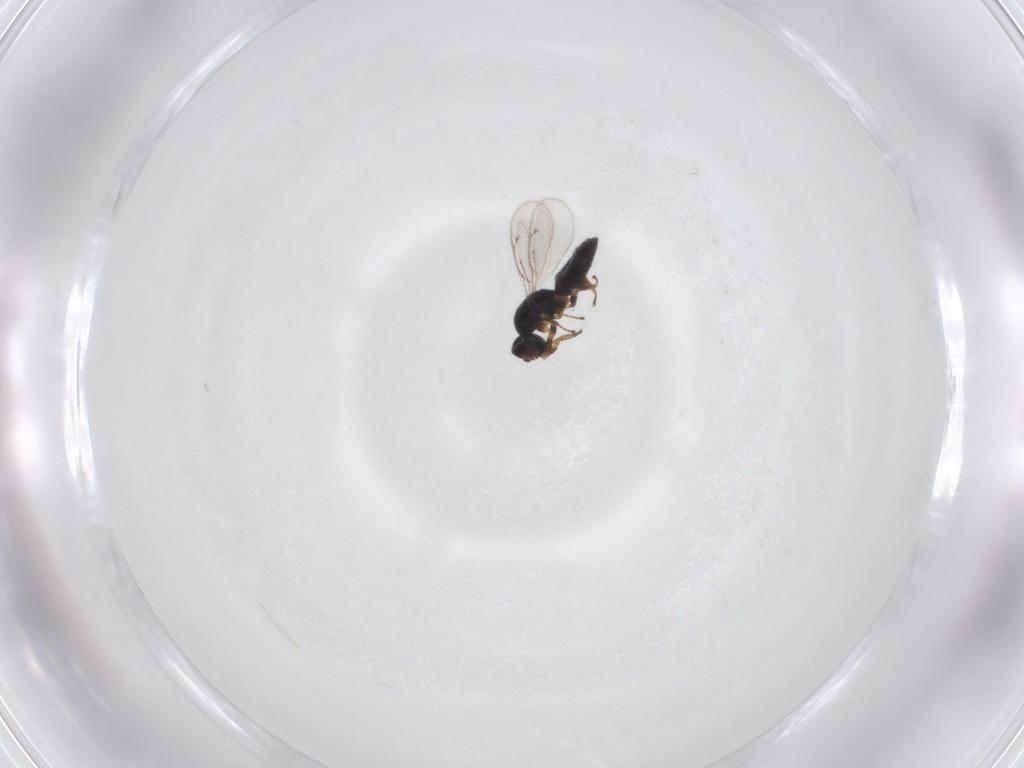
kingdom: Animalia
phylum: Arthropoda
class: Insecta
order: Hymenoptera
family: Eulophidae
